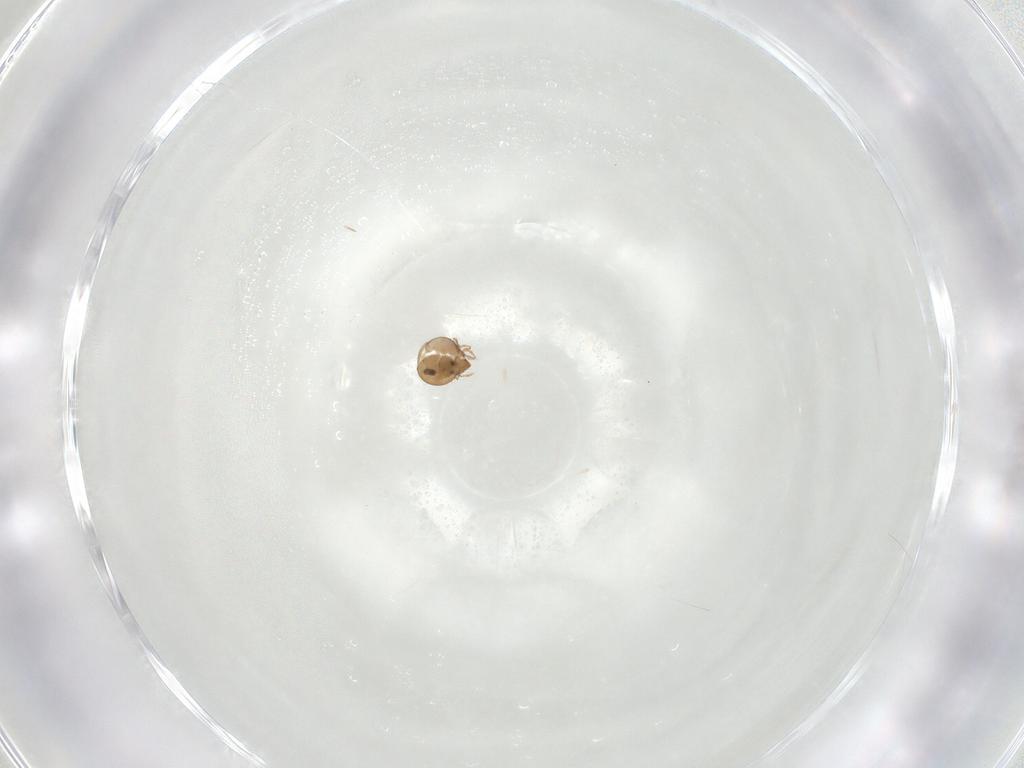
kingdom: Animalia
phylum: Arthropoda
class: Arachnida
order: Sarcoptiformes
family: Oribatulidae
